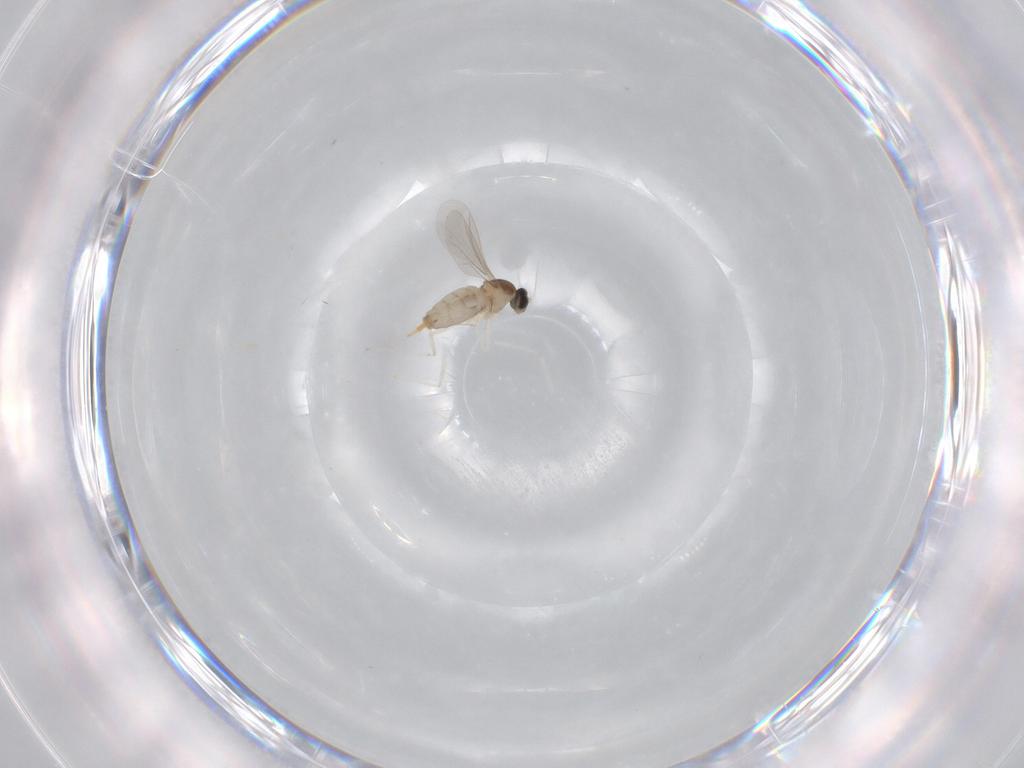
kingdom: Animalia
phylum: Arthropoda
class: Insecta
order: Diptera
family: Cecidomyiidae
